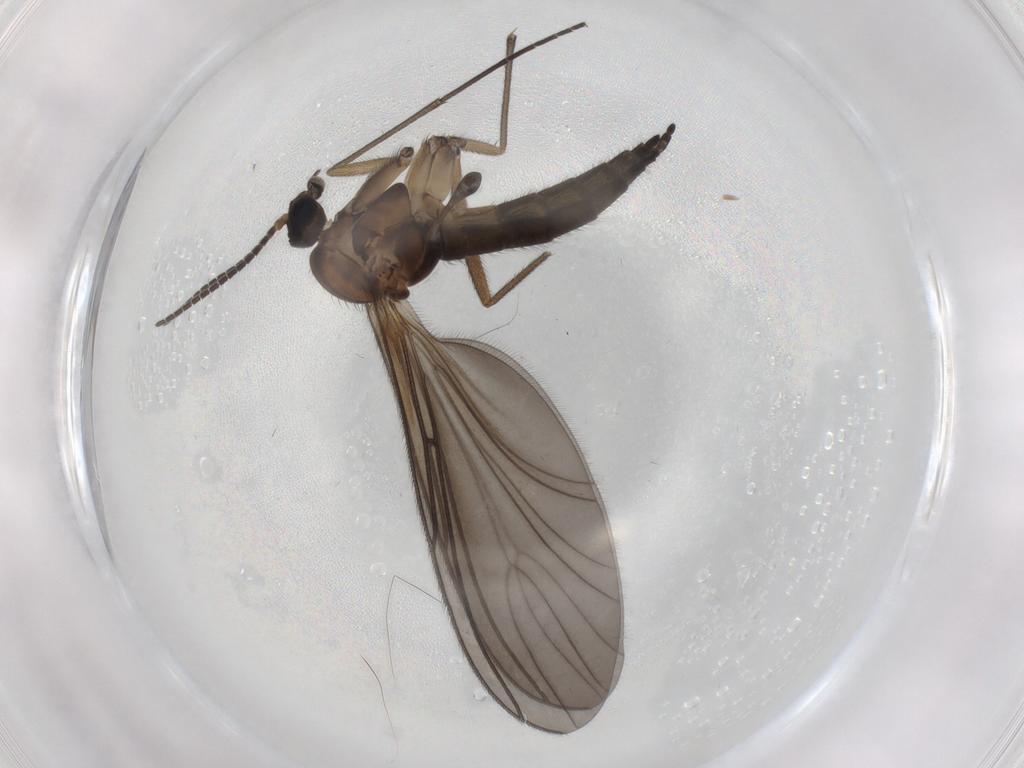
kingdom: Animalia
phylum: Arthropoda
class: Insecta
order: Diptera
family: Sciaridae
